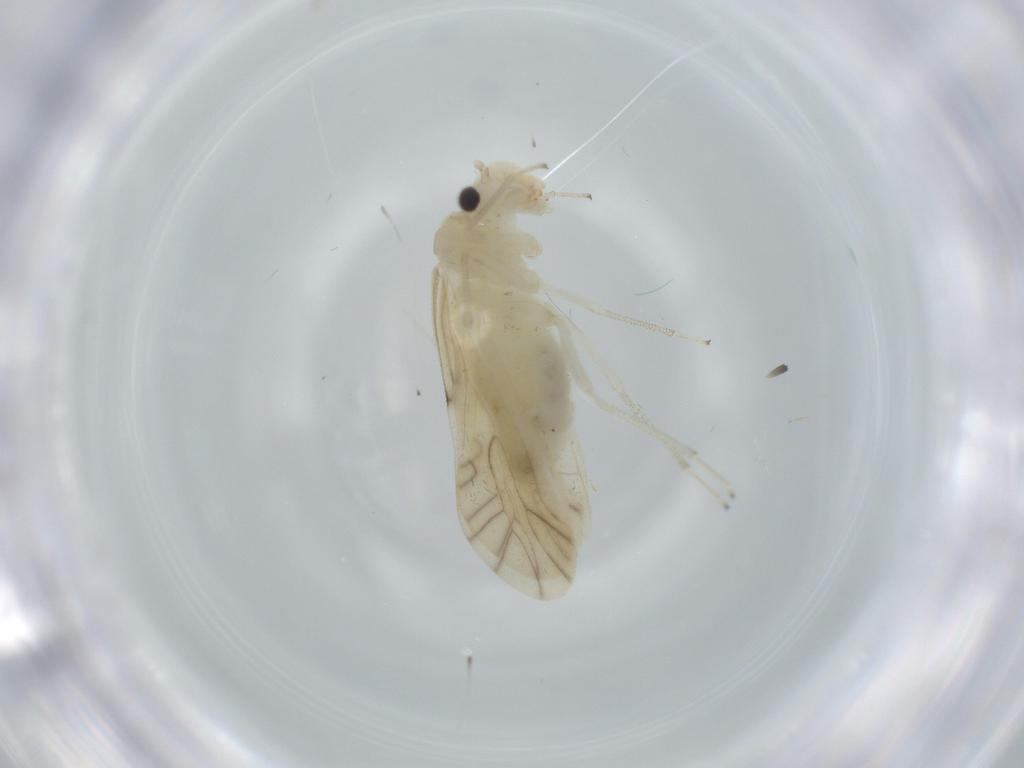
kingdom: Animalia
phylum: Arthropoda
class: Insecta
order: Psocodea
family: Caeciliusidae
